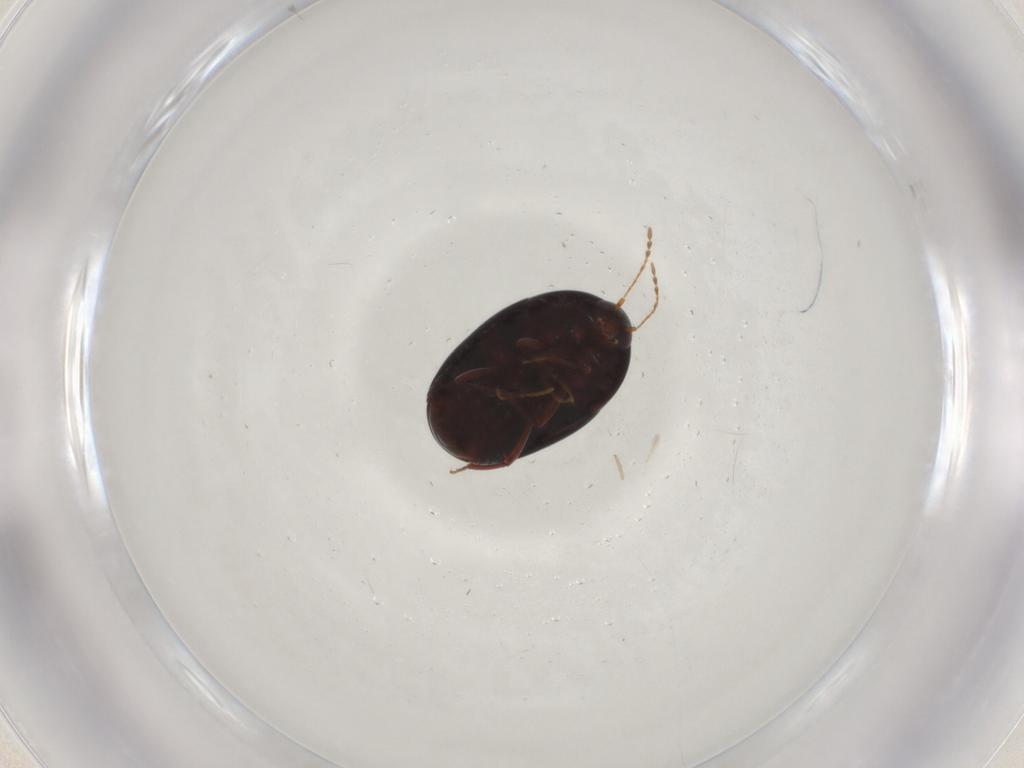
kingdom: Animalia
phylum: Arthropoda
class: Insecta
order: Coleoptera
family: Staphylinidae
